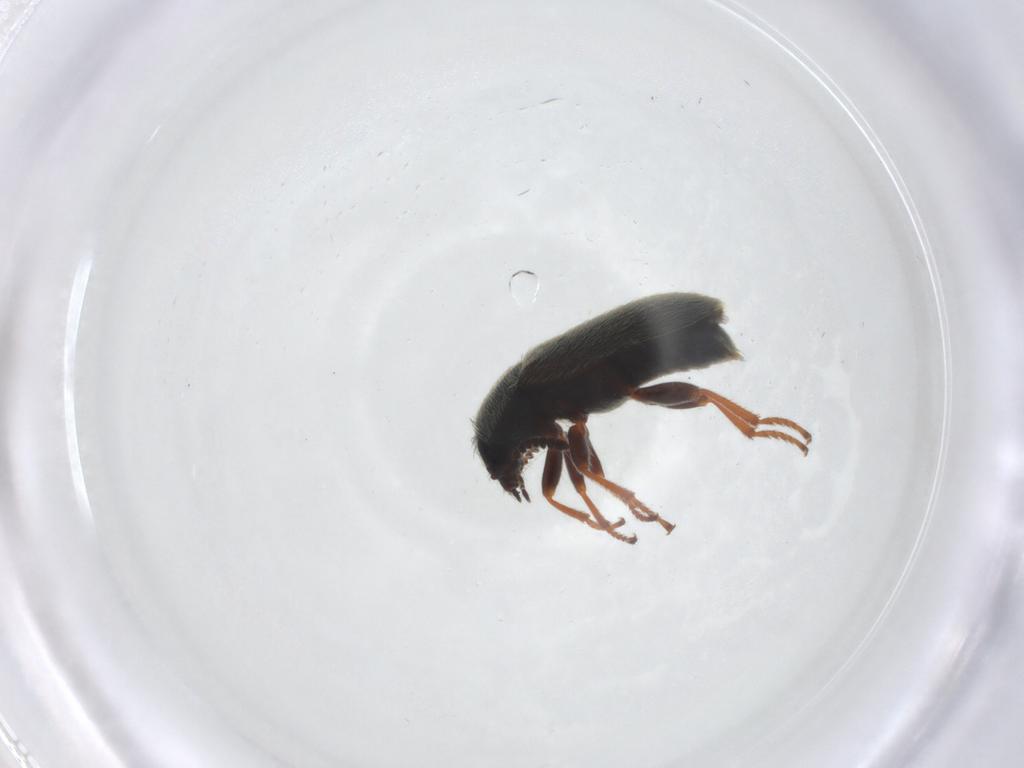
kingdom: Animalia
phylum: Arthropoda
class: Insecta
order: Coleoptera
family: Melyridae
